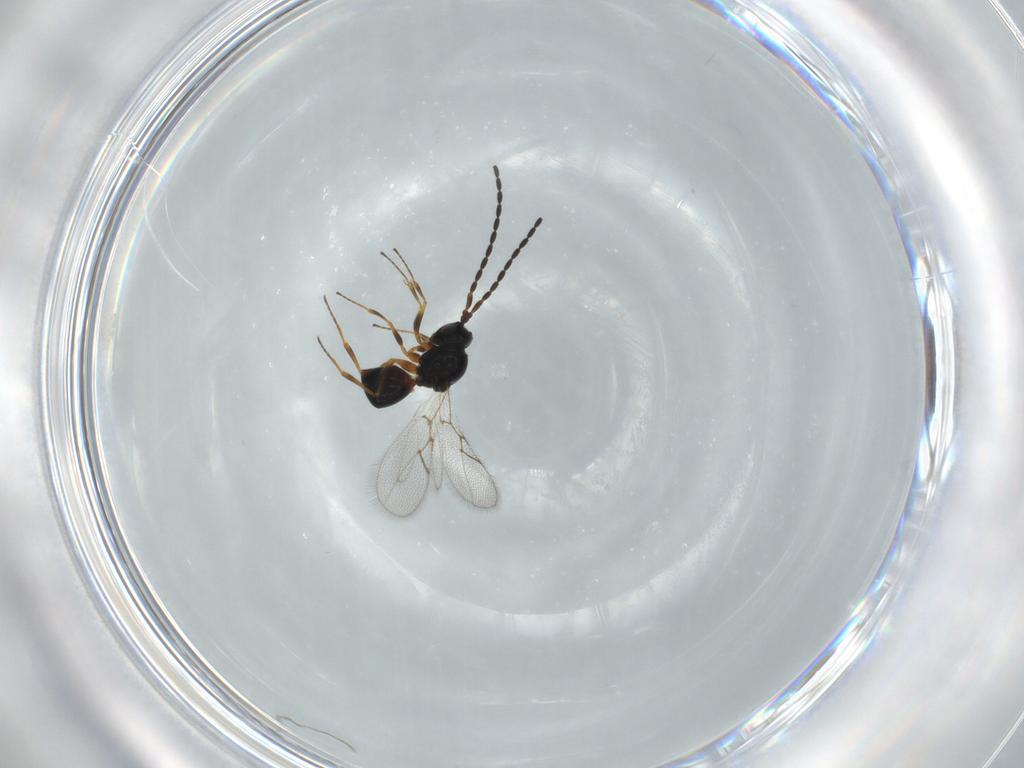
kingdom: Animalia
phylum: Arthropoda
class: Insecta
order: Hymenoptera
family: Figitidae
